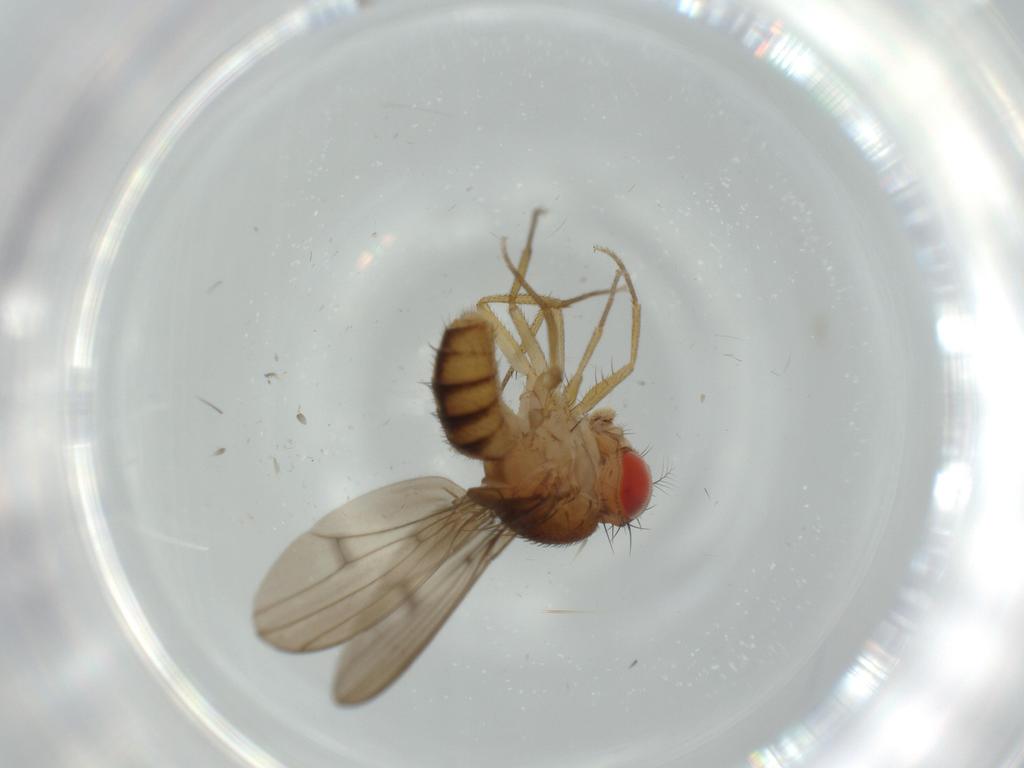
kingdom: Animalia
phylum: Arthropoda
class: Insecta
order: Diptera
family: Drosophilidae
